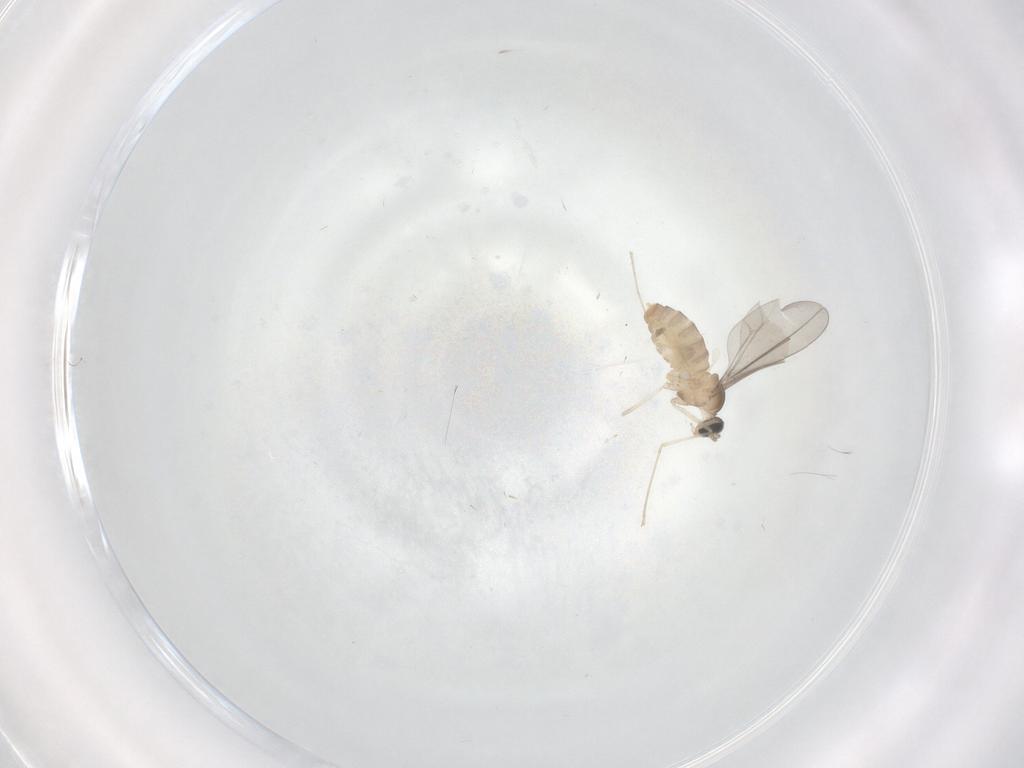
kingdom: Animalia
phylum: Arthropoda
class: Insecta
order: Diptera
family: Cecidomyiidae
